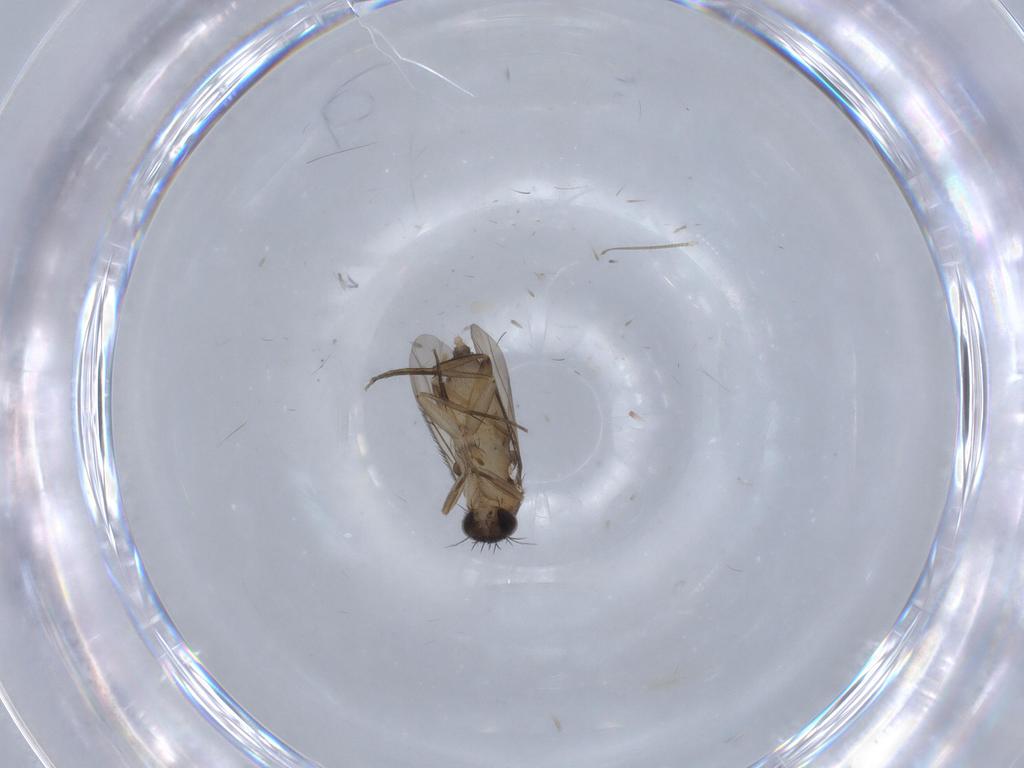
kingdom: Animalia
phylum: Arthropoda
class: Insecta
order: Diptera
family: Phoridae
